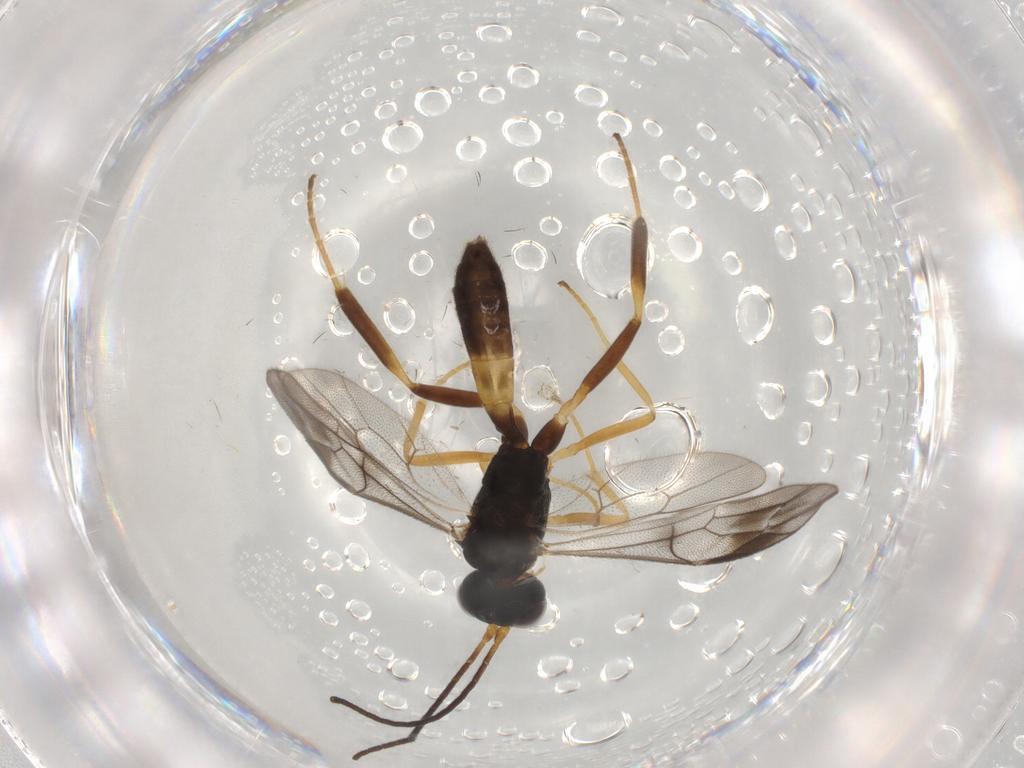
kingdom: Animalia
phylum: Arthropoda
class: Insecta
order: Hymenoptera
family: Ichneumonidae
